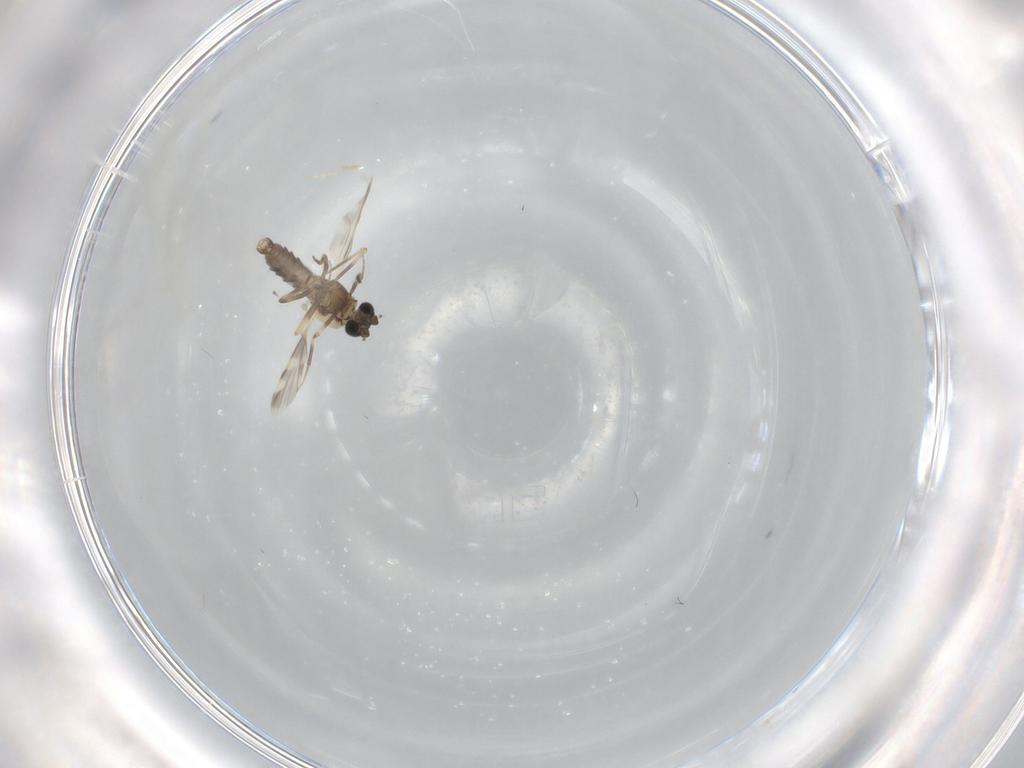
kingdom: Animalia
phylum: Arthropoda
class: Insecta
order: Diptera
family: Ceratopogonidae
